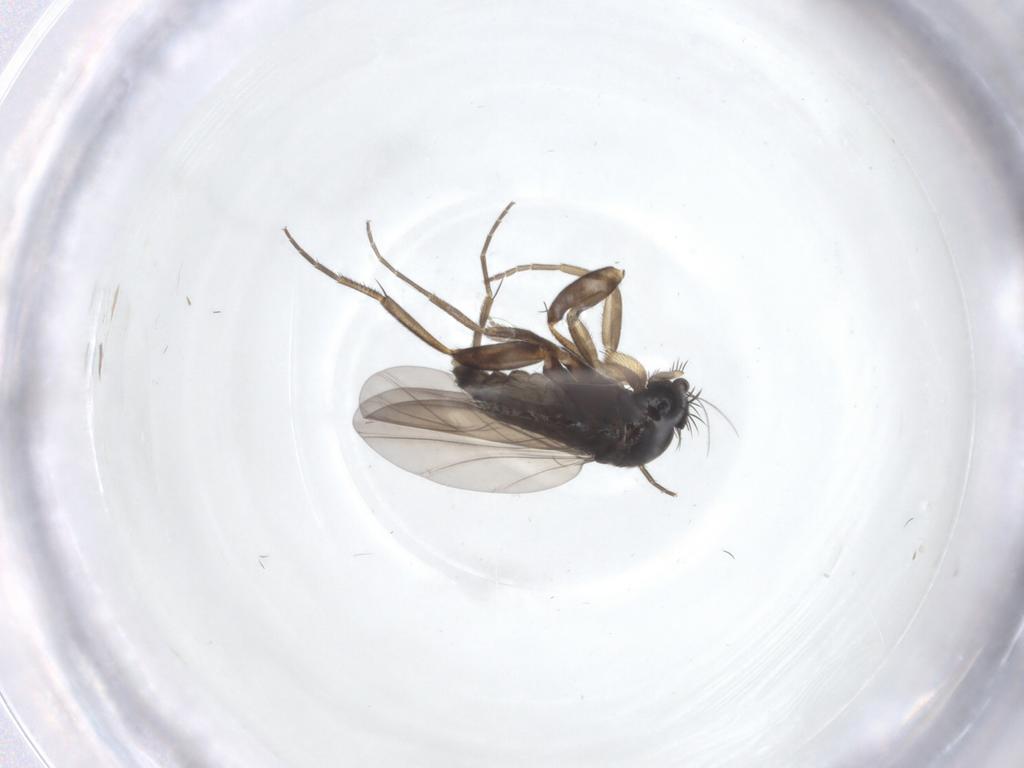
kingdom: Animalia
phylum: Arthropoda
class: Insecta
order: Diptera
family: Phoridae
